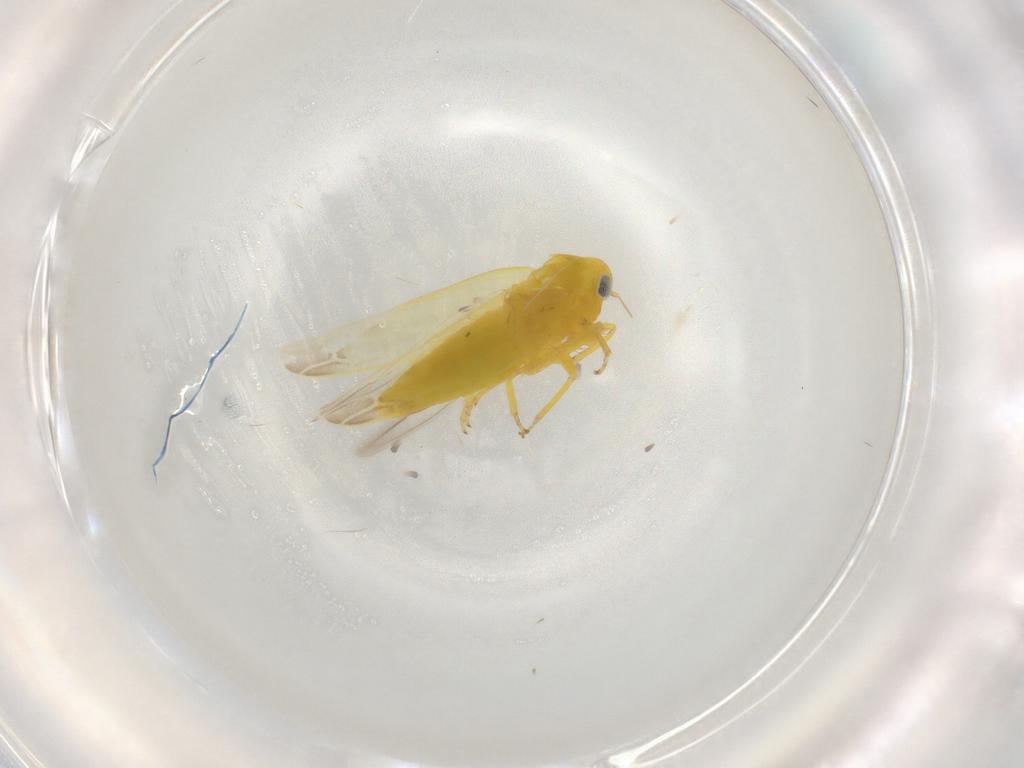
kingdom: Animalia
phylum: Arthropoda
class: Insecta
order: Hemiptera
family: Cicadellidae
